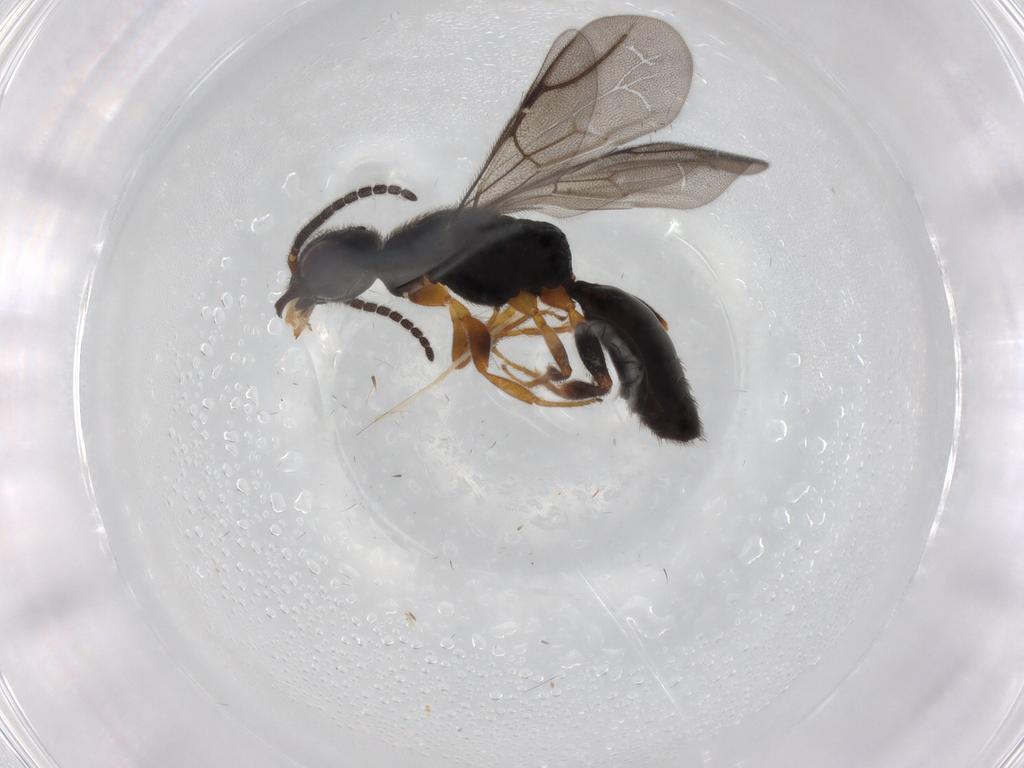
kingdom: Animalia
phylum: Arthropoda
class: Insecta
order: Hymenoptera
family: Bethylidae
